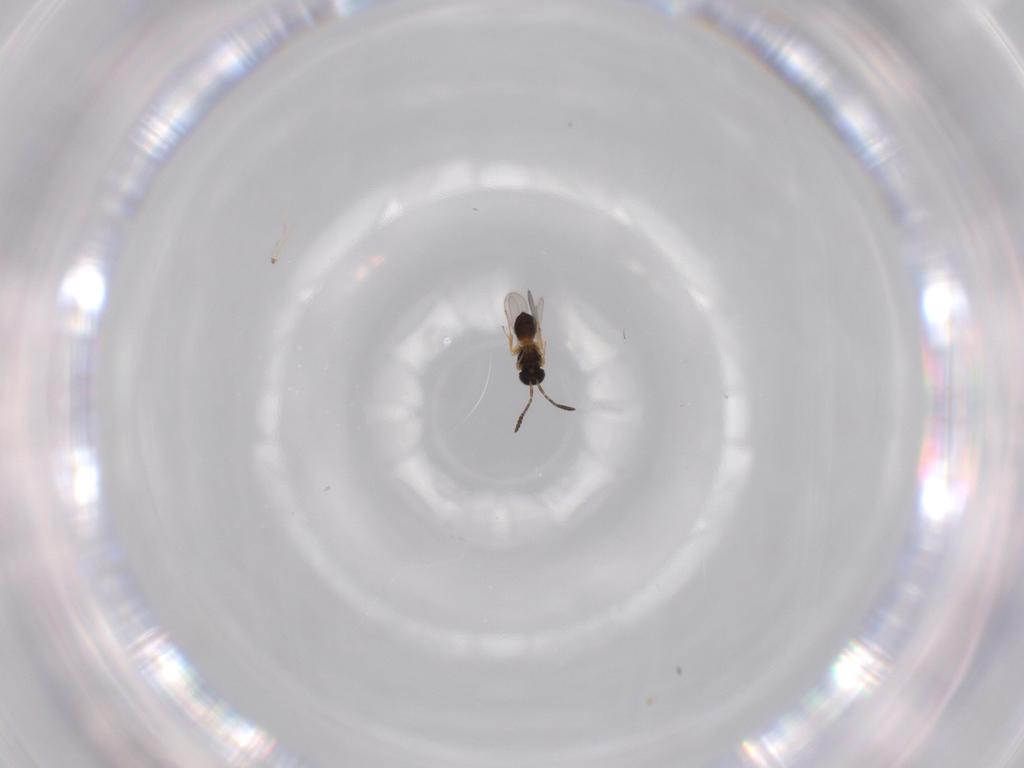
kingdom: Animalia
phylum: Arthropoda
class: Insecta
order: Hymenoptera
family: Scelionidae
